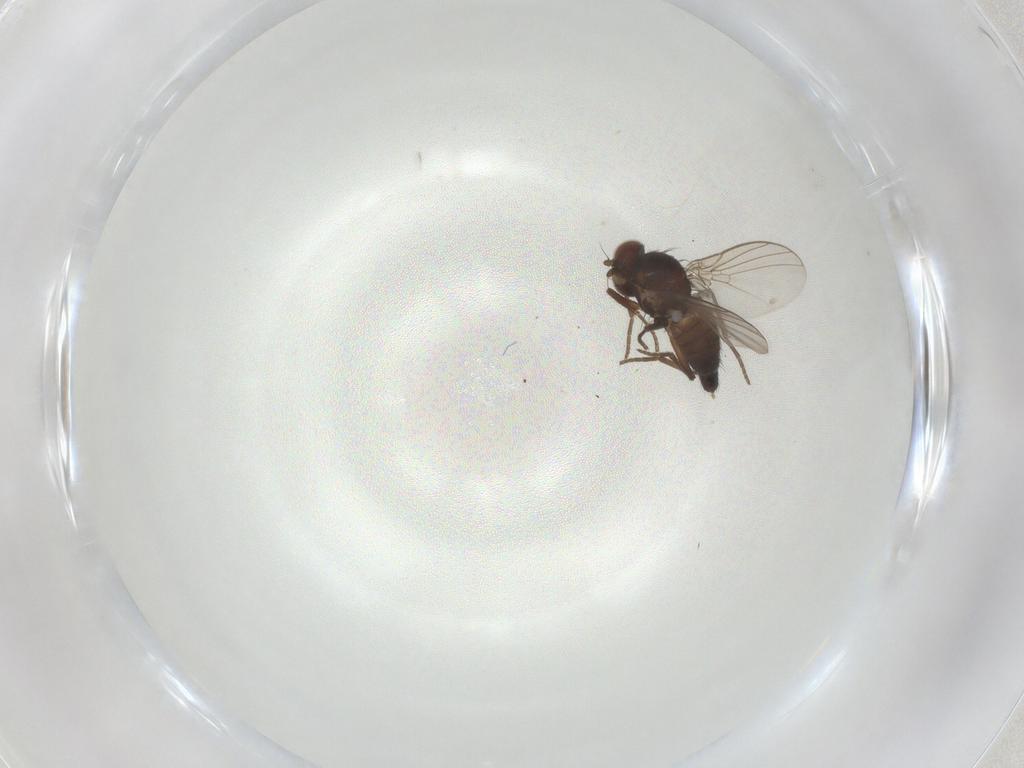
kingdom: Animalia
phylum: Arthropoda
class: Insecta
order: Diptera
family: Agromyzidae
